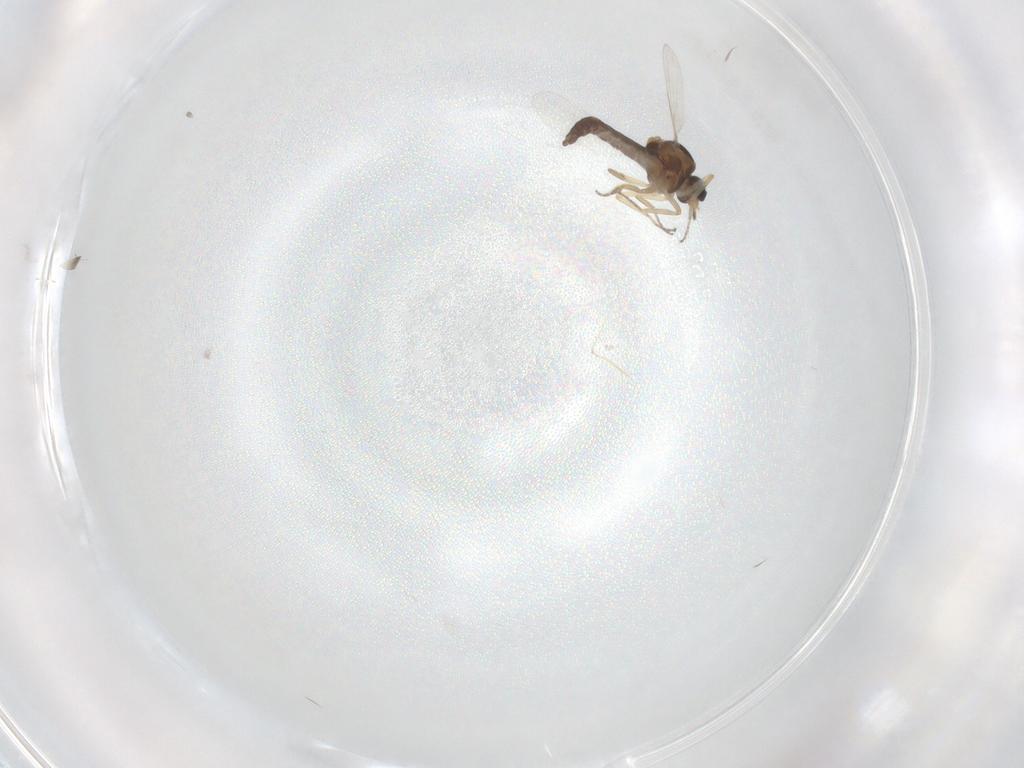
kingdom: Animalia
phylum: Arthropoda
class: Insecta
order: Diptera
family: Ceratopogonidae
